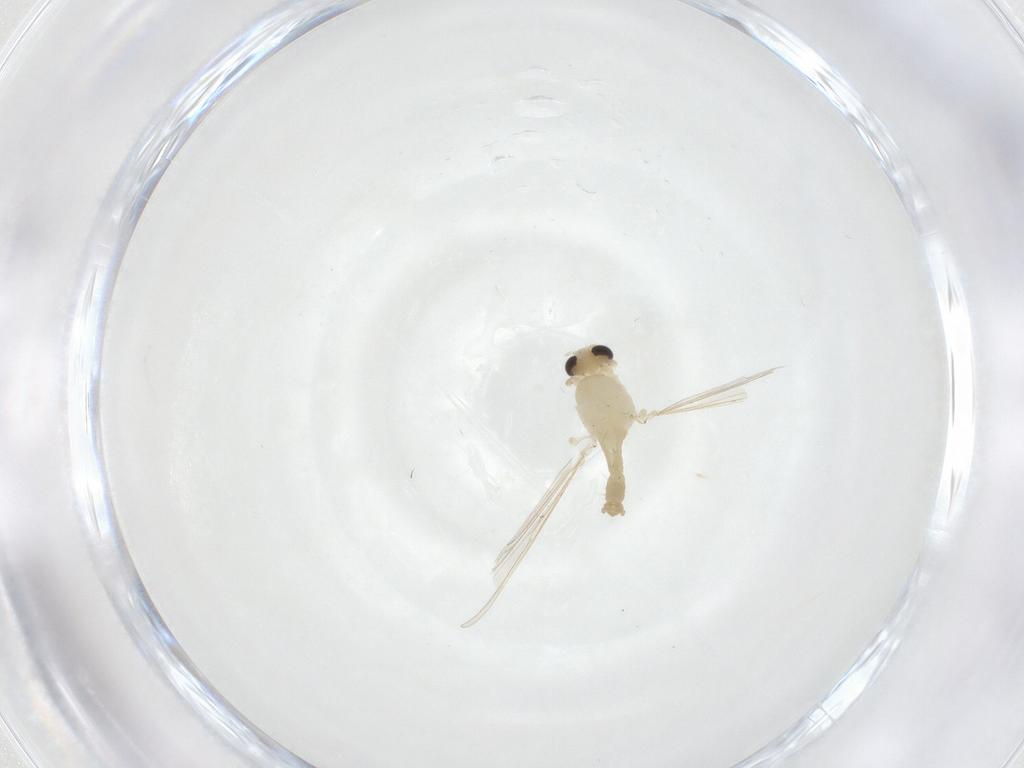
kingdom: Animalia
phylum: Arthropoda
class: Insecta
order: Diptera
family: Chironomidae
